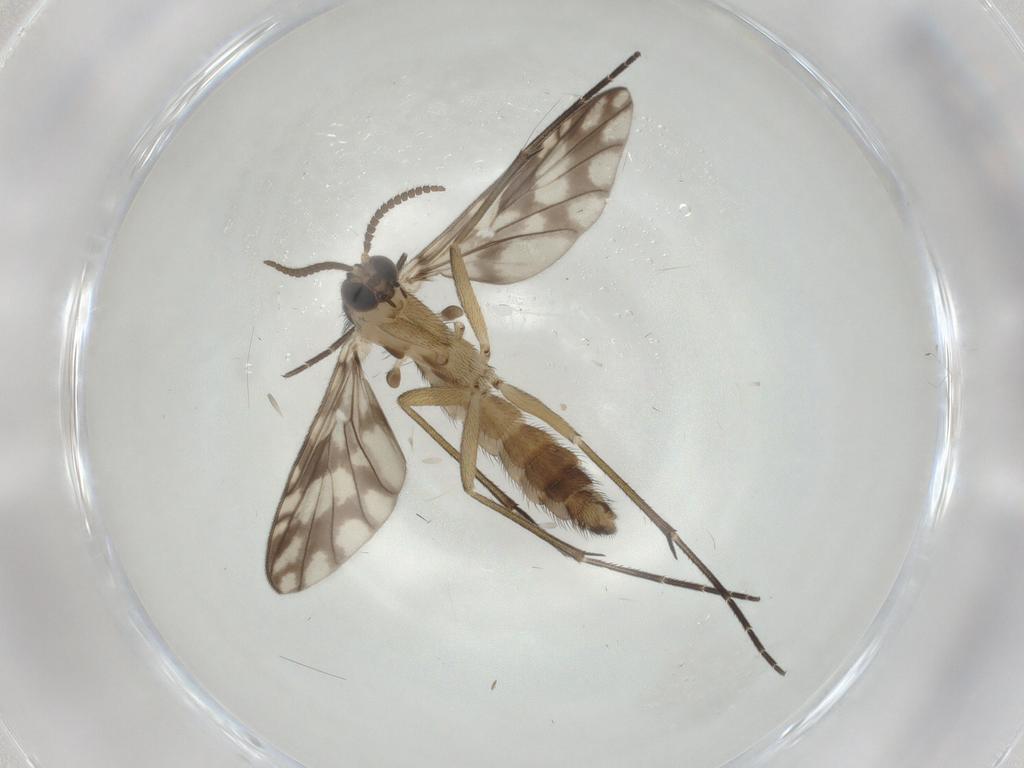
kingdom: Animalia
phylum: Arthropoda
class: Insecta
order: Diptera
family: Keroplatidae
